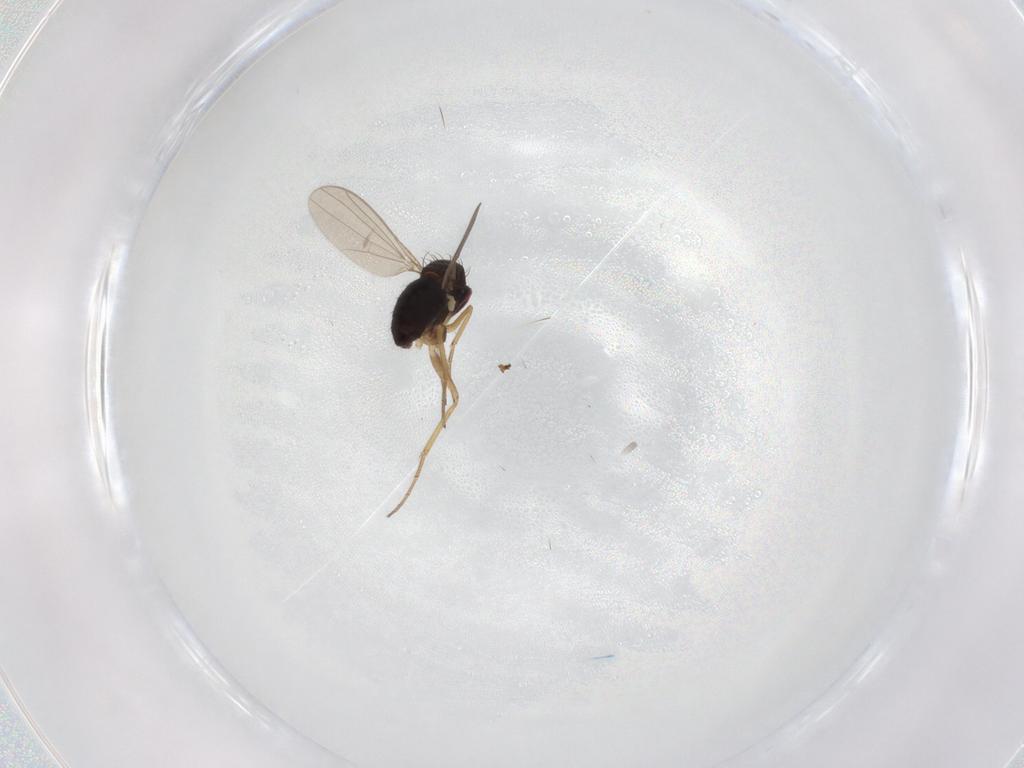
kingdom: Animalia
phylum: Arthropoda
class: Insecta
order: Diptera
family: Dolichopodidae
